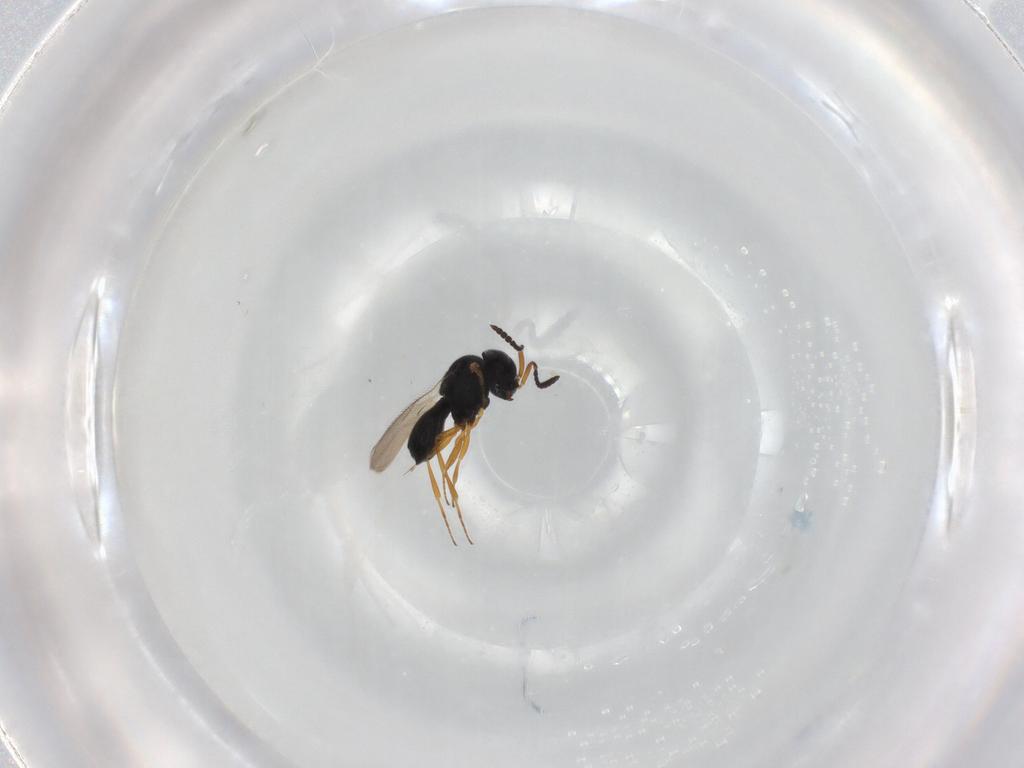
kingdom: Animalia
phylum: Arthropoda
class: Insecta
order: Hymenoptera
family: Scelionidae
